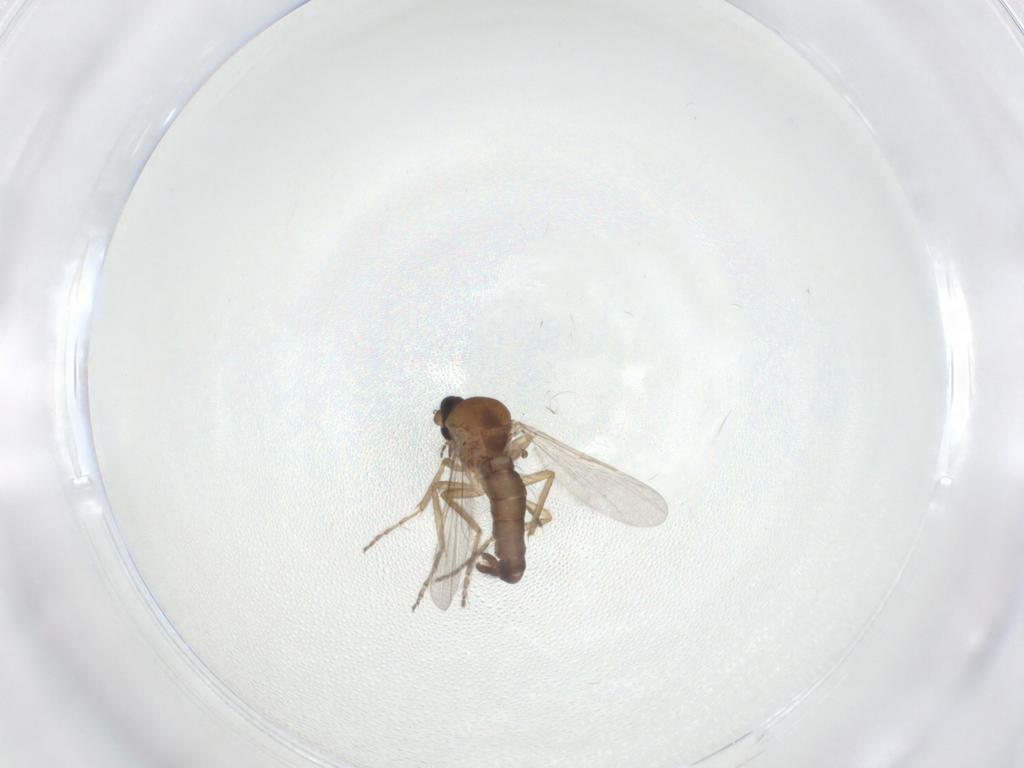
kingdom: Animalia
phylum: Arthropoda
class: Insecta
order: Diptera
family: Ceratopogonidae
